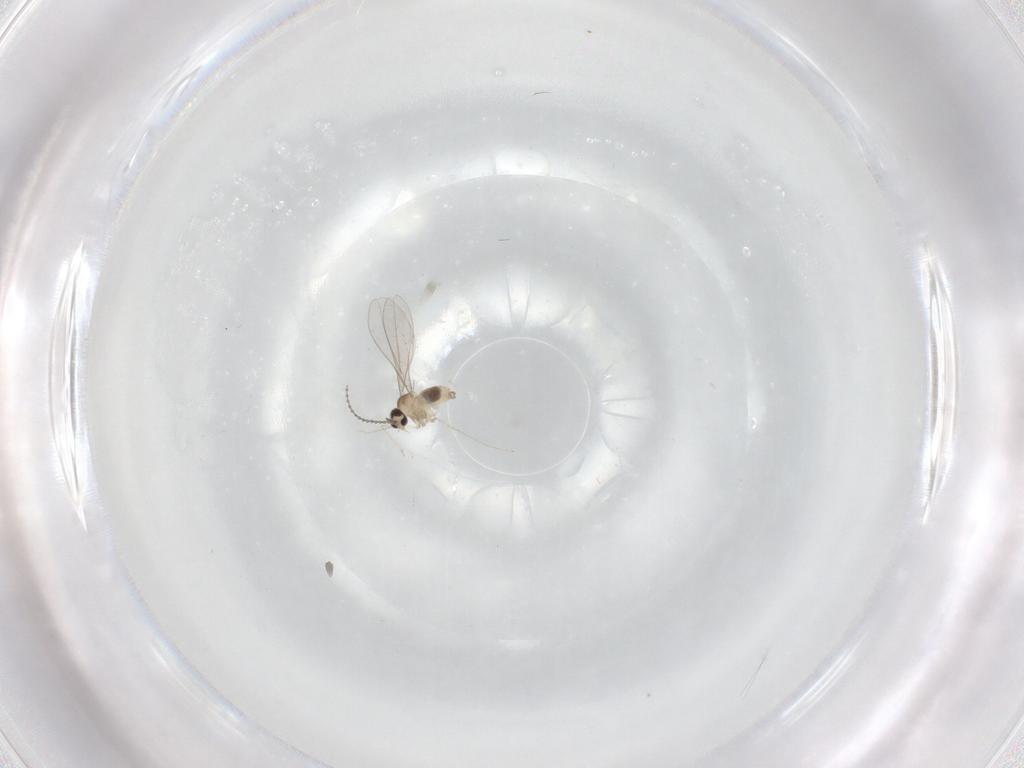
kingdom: Animalia
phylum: Arthropoda
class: Insecta
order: Diptera
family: Cecidomyiidae
